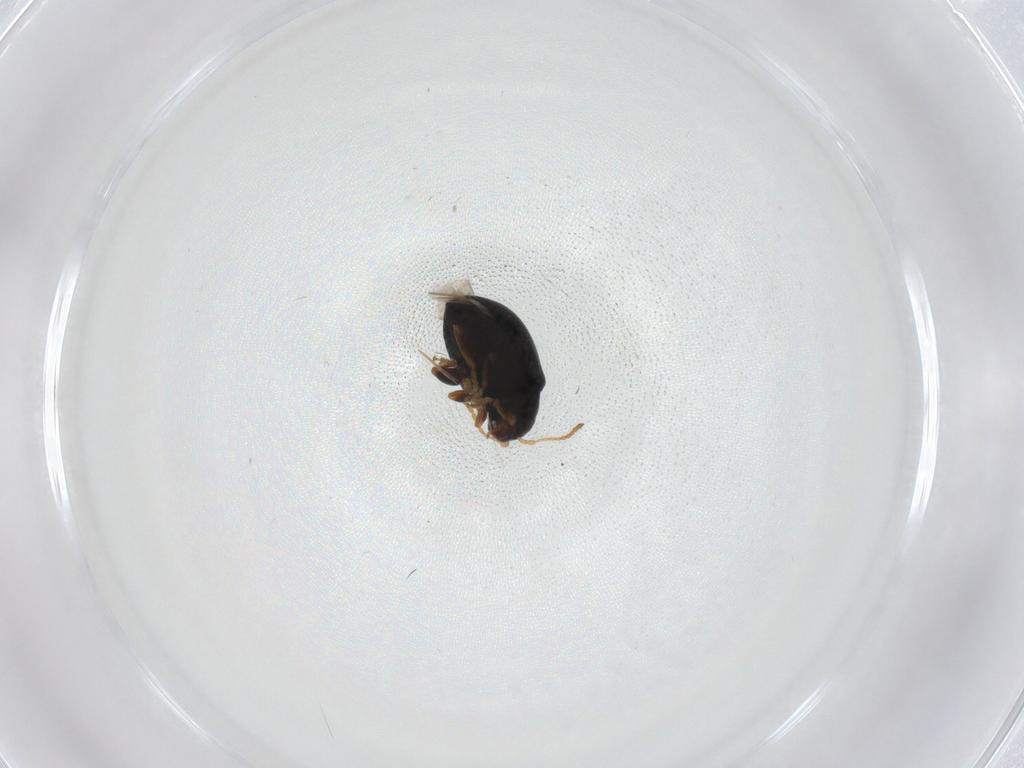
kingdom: Animalia
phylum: Arthropoda
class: Insecta
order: Coleoptera
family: Chrysomelidae
